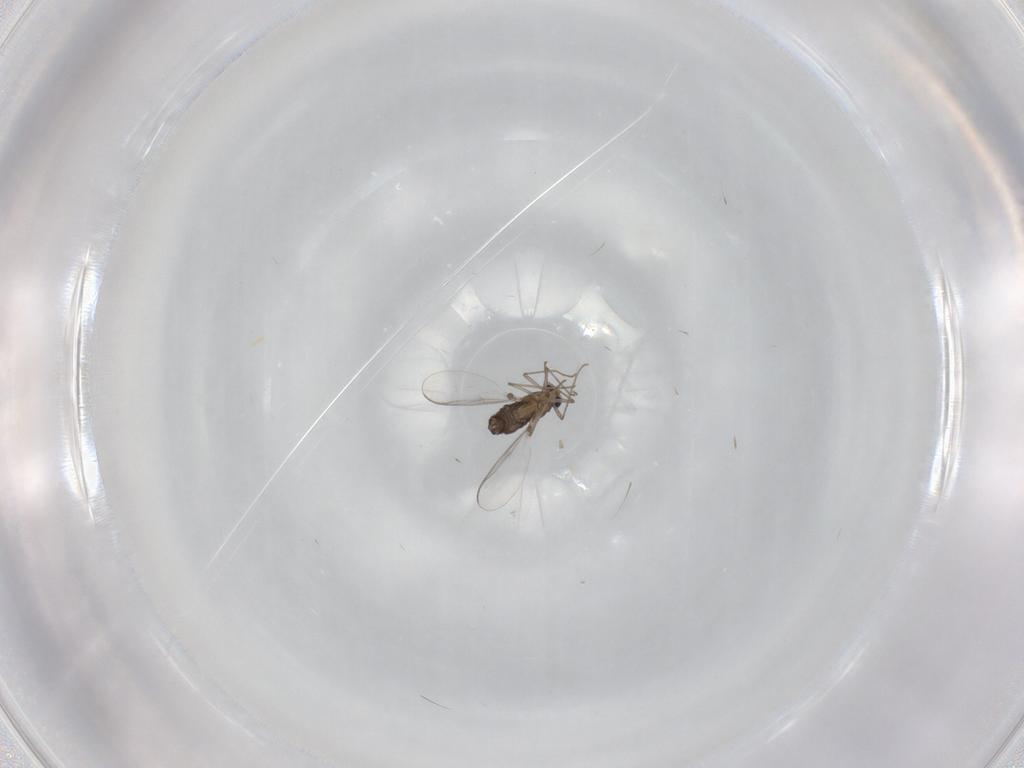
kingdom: Animalia
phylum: Arthropoda
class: Insecta
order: Diptera
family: Chironomidae
